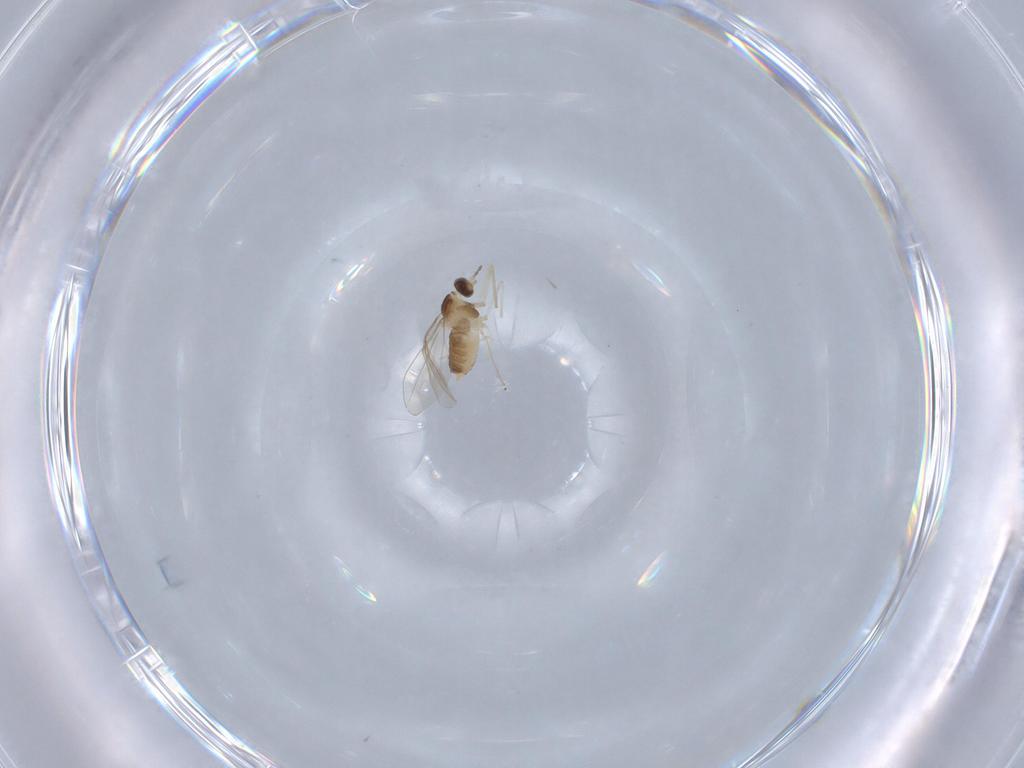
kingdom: Animalia
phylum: Arthropoda
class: Insecta
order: Diptera
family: Cecidomyiidae
